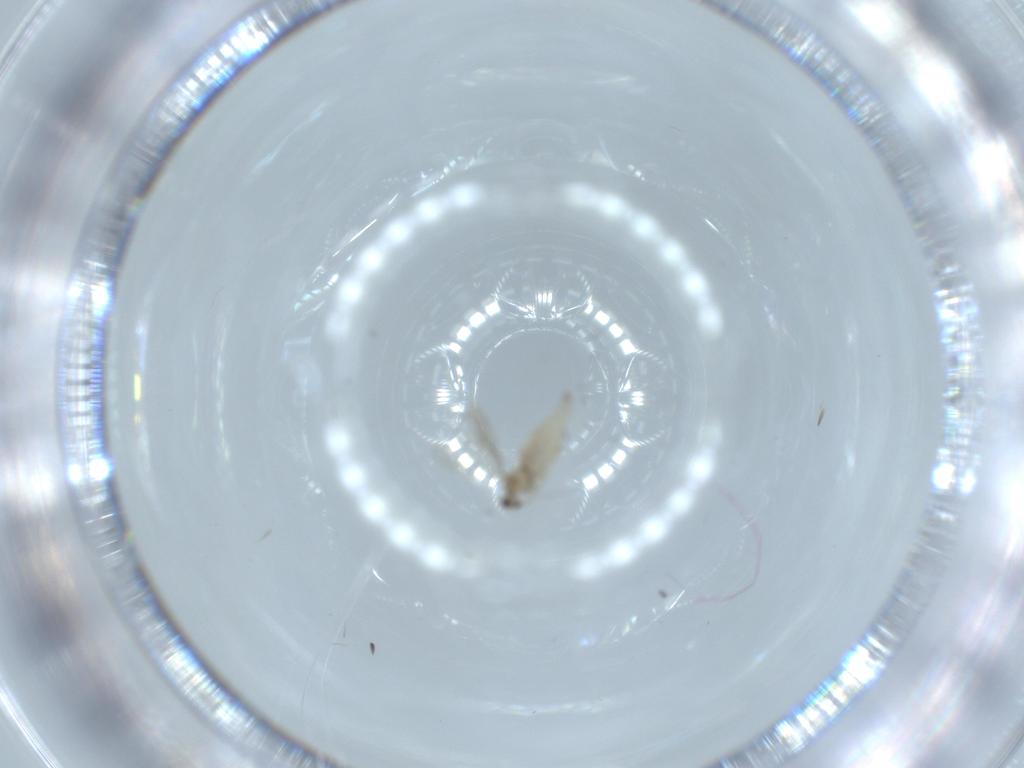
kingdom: Animalia
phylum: Arthropoda
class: Insecta
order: Diptera
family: Cecidomyiidae
